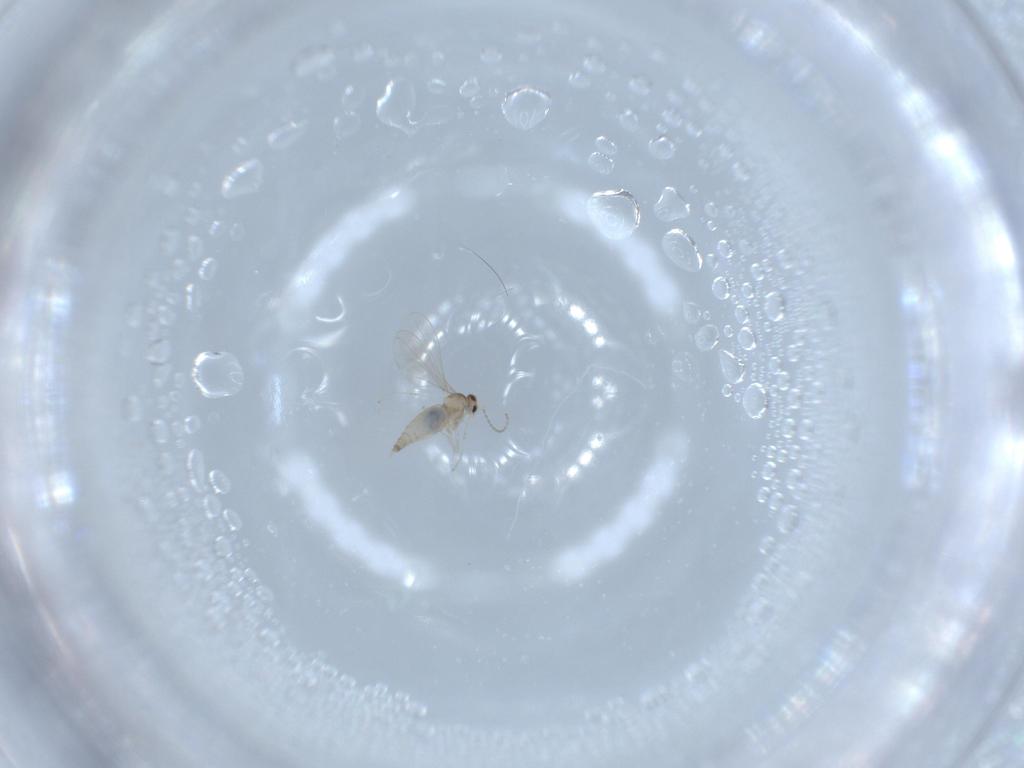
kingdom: Animalia
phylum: Arthropoda
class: Insecta
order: Diptera
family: Cecidomyiidae
